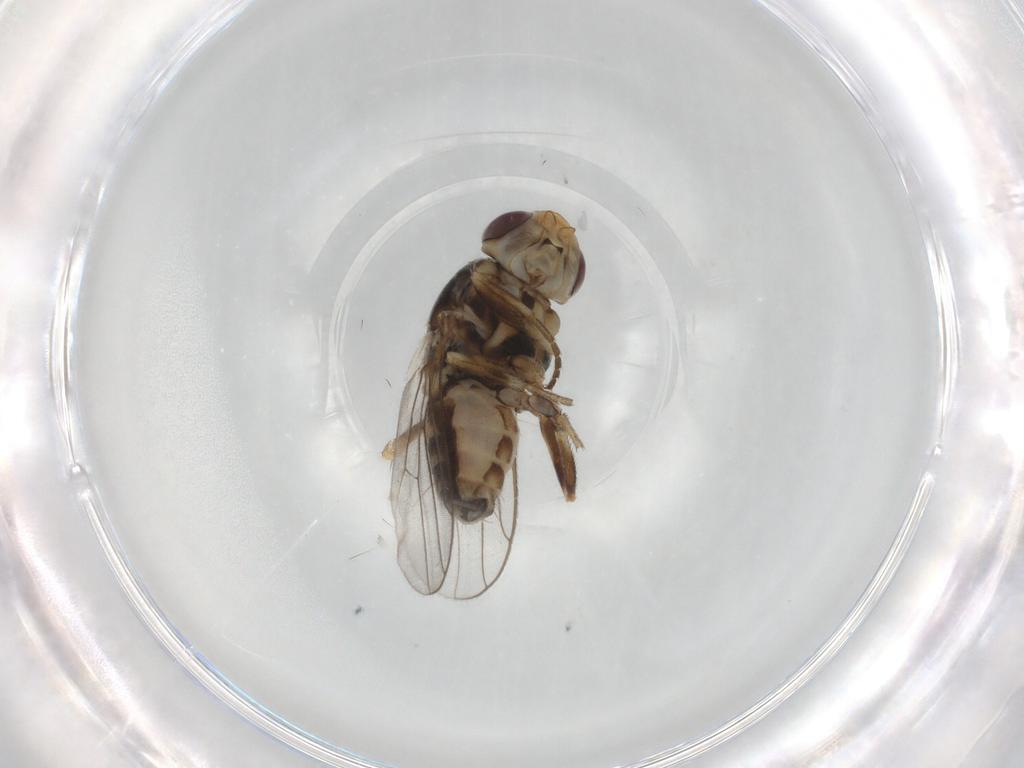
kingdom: Animalia
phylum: Arthropoda
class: Insecta
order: Diptera
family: Chloropidae
